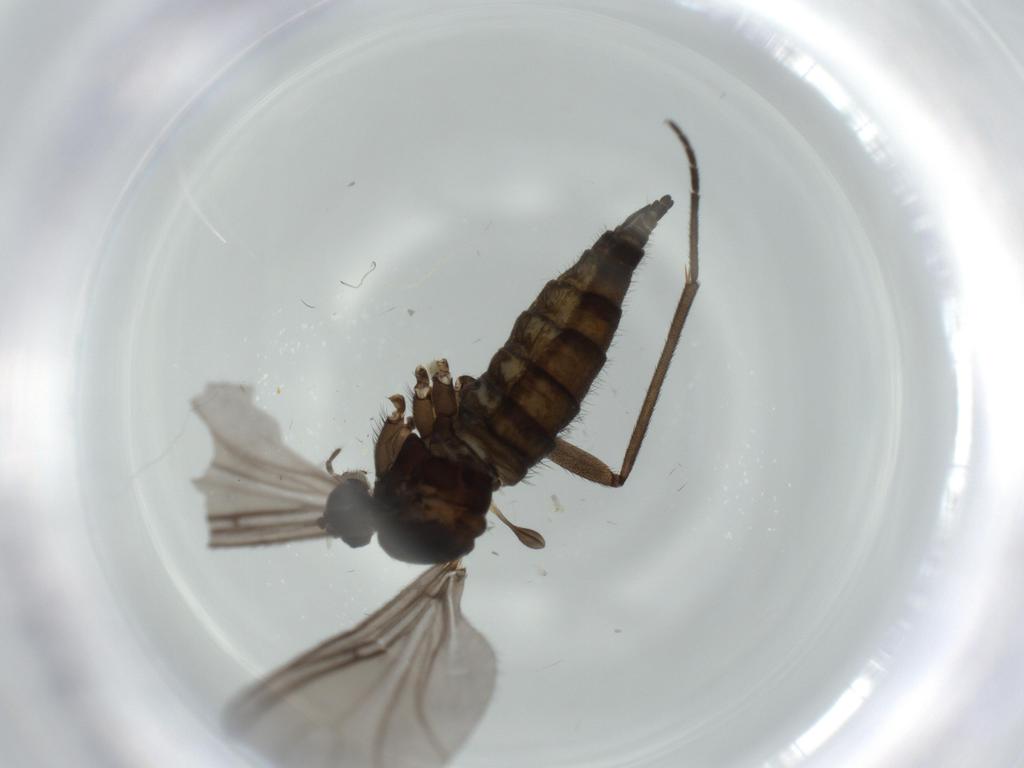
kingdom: Animalia
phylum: Arthropoda
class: Insecta
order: Diptera
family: Sciaridae
